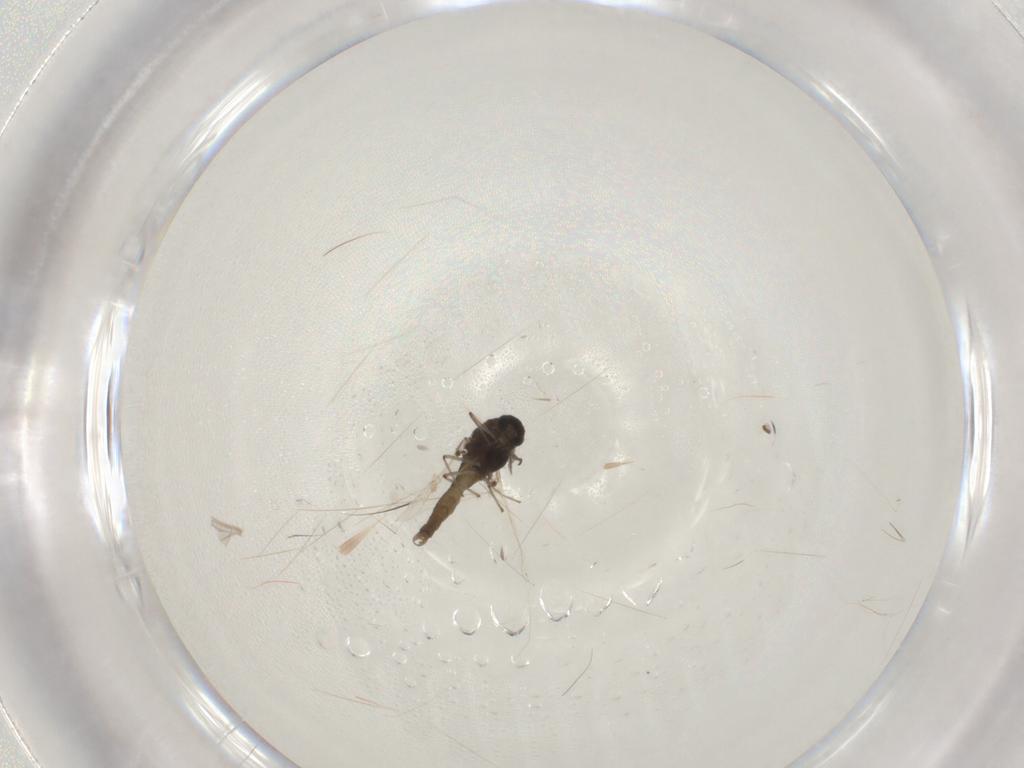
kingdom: Animalia
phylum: Arthropoda
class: Insecta
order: Diptera
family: Chironomidae
